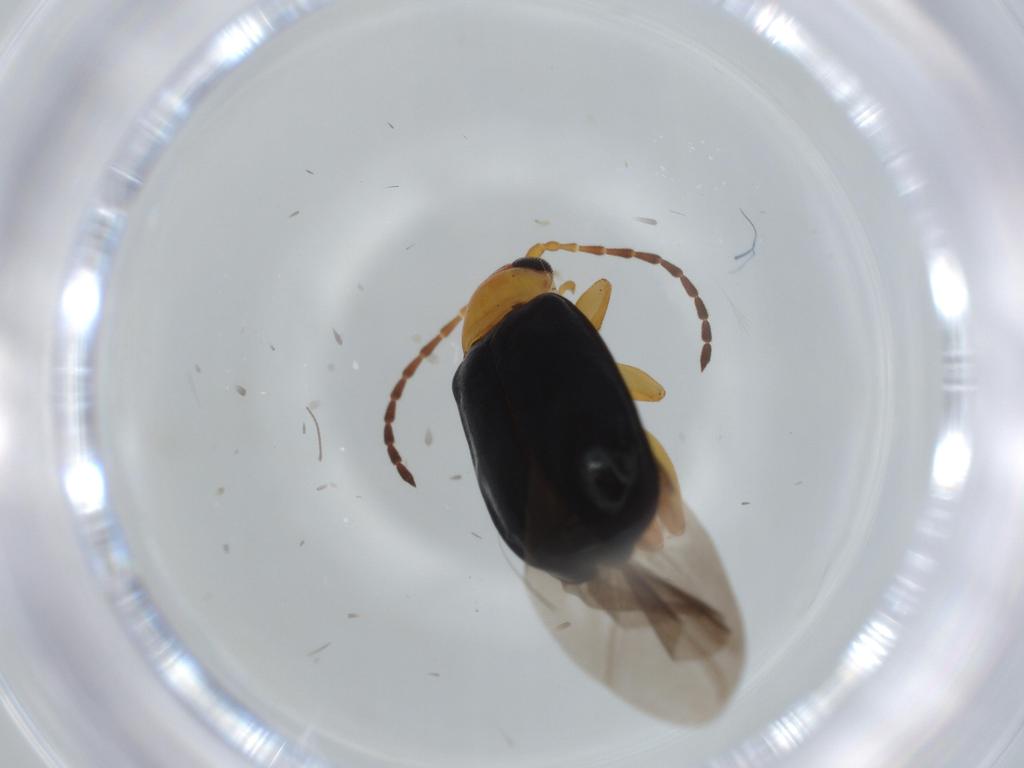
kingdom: Animalia
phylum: Arthropoda
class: Insecta
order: Coleoptera
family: Chrysomelidae
